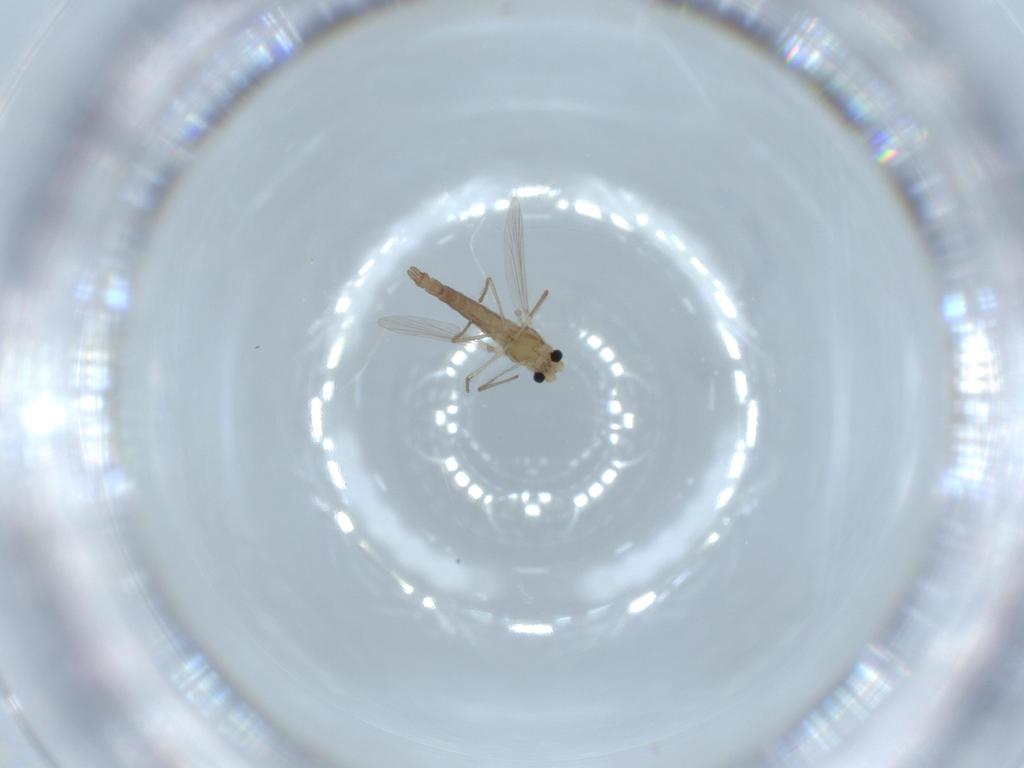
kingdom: Animalia
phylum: Arthropoda
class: Insecta
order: Diptera
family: Chironomidae
